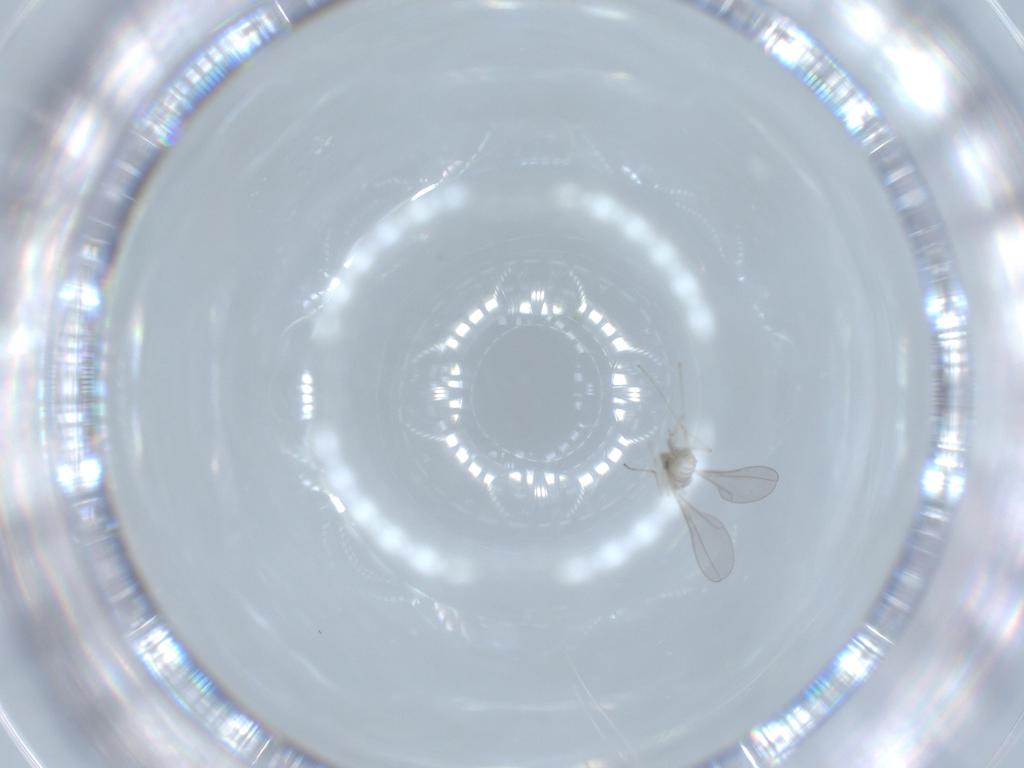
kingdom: Animalia
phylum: Arthropoda
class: Insecta
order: Diptera
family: Cecidomyiidae
